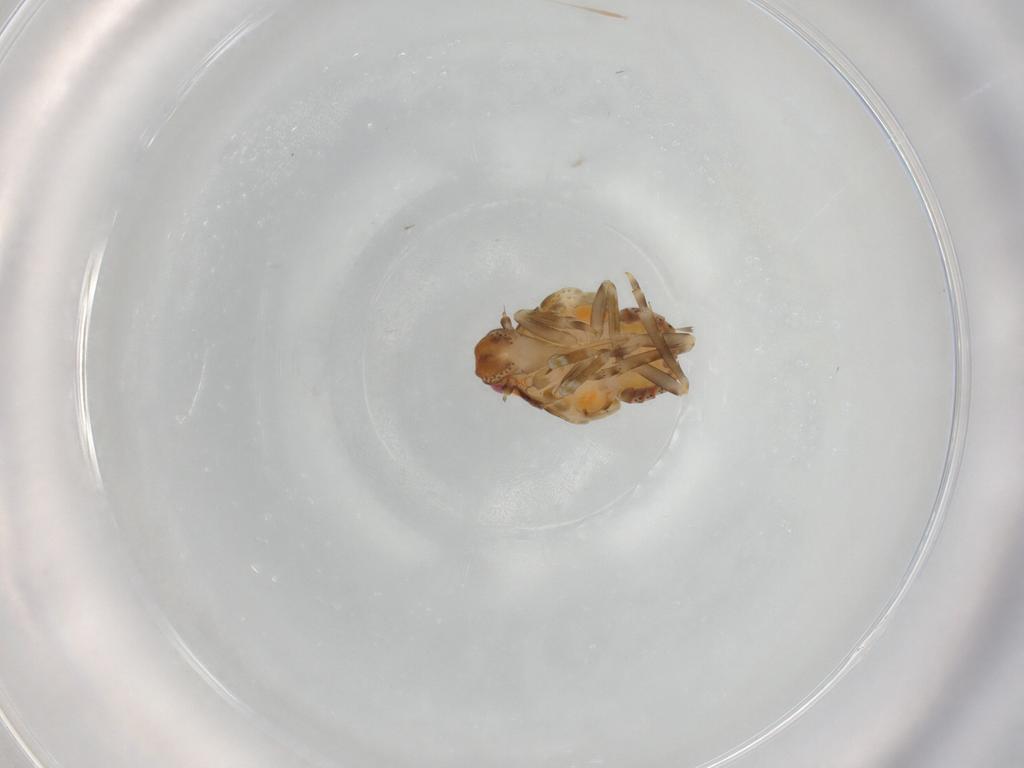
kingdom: Animalia
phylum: Arthropoda
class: Insecta
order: Hemiptera
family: Flatidae
